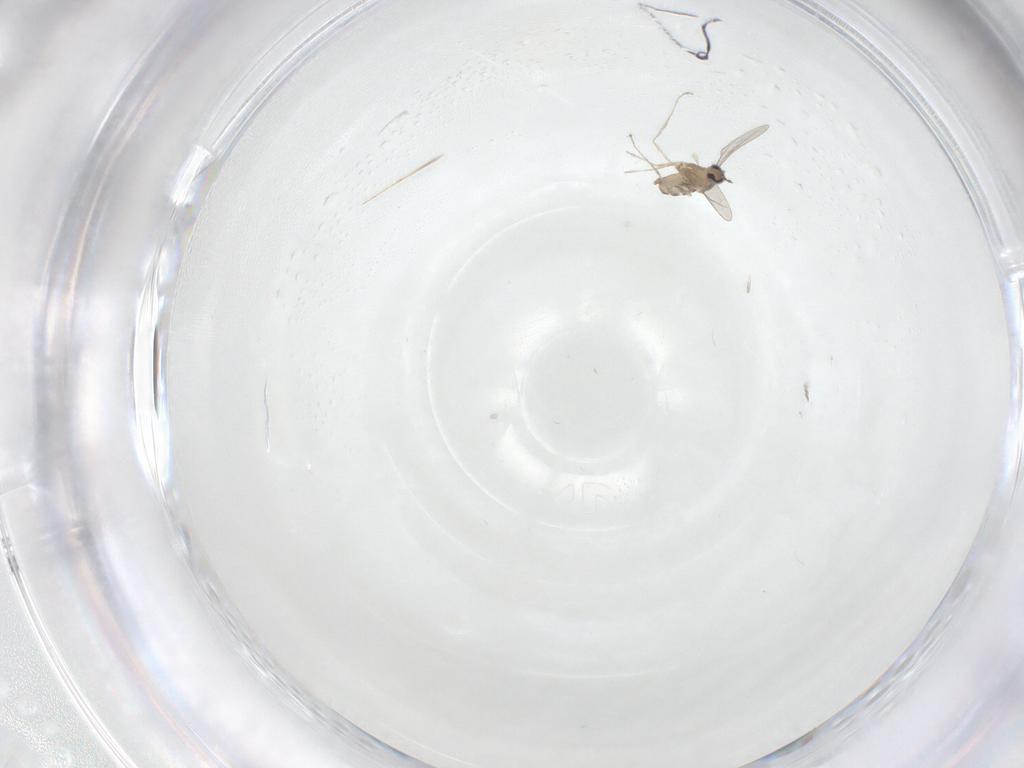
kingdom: Animalia
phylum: Arthropoda
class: Insecta
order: Diptera
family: Cecidomyiidae
